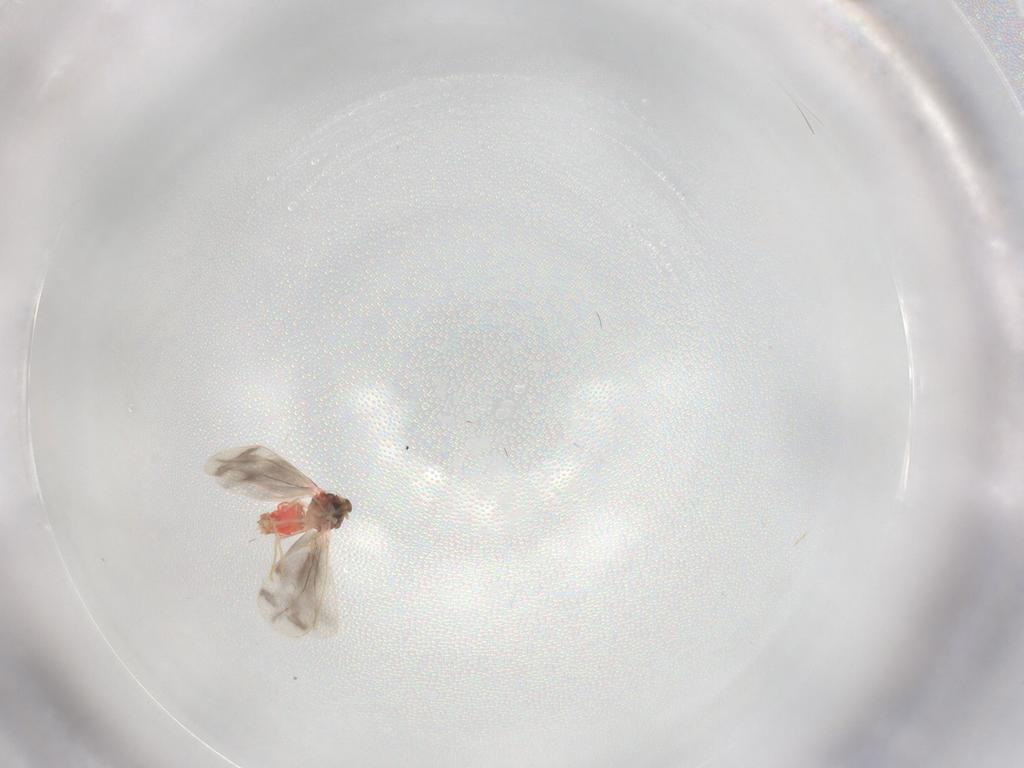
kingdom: Animalia
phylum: Arthropoda
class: Insecta
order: Hemiptera
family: Aleyrodidae
